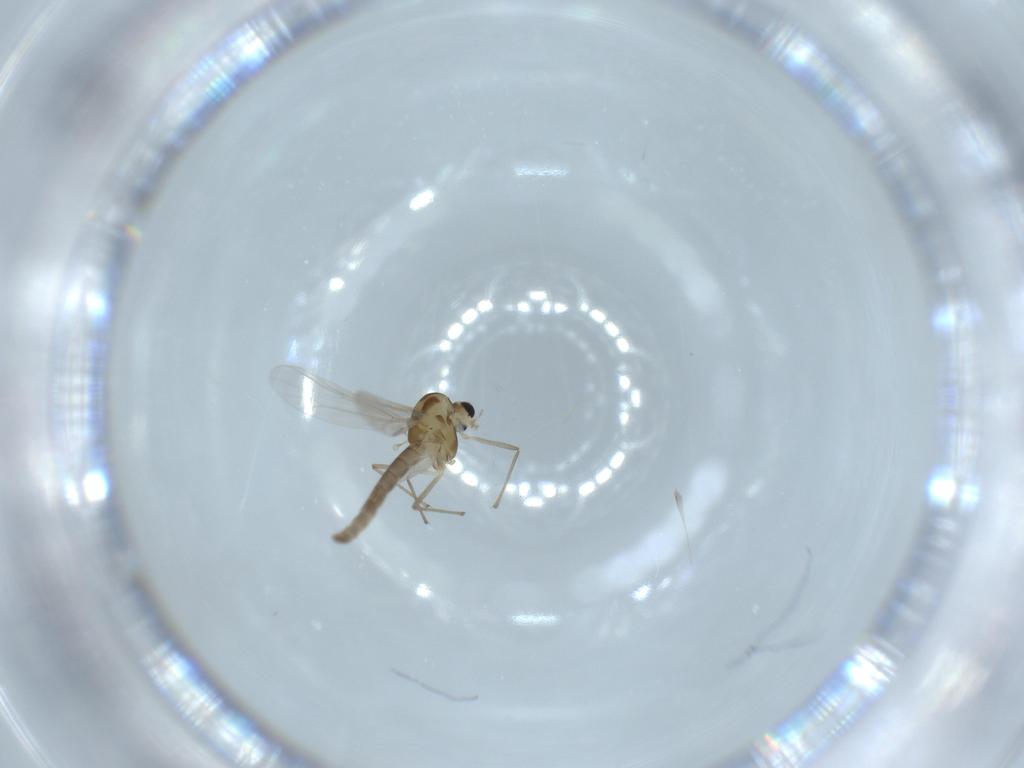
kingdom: Animalia
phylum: Arthropoda
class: Insecta
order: Diptera
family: Chironomidae
